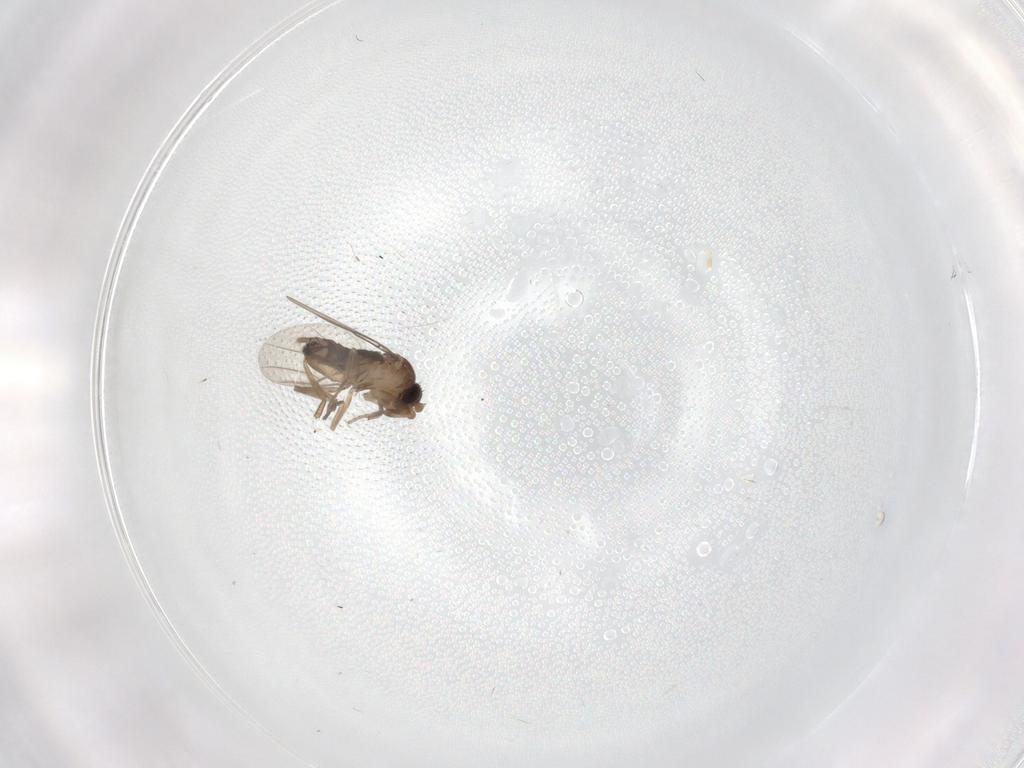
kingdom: Animalia
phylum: Arthropoda
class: Insecta
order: Diptera
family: Phoridae
